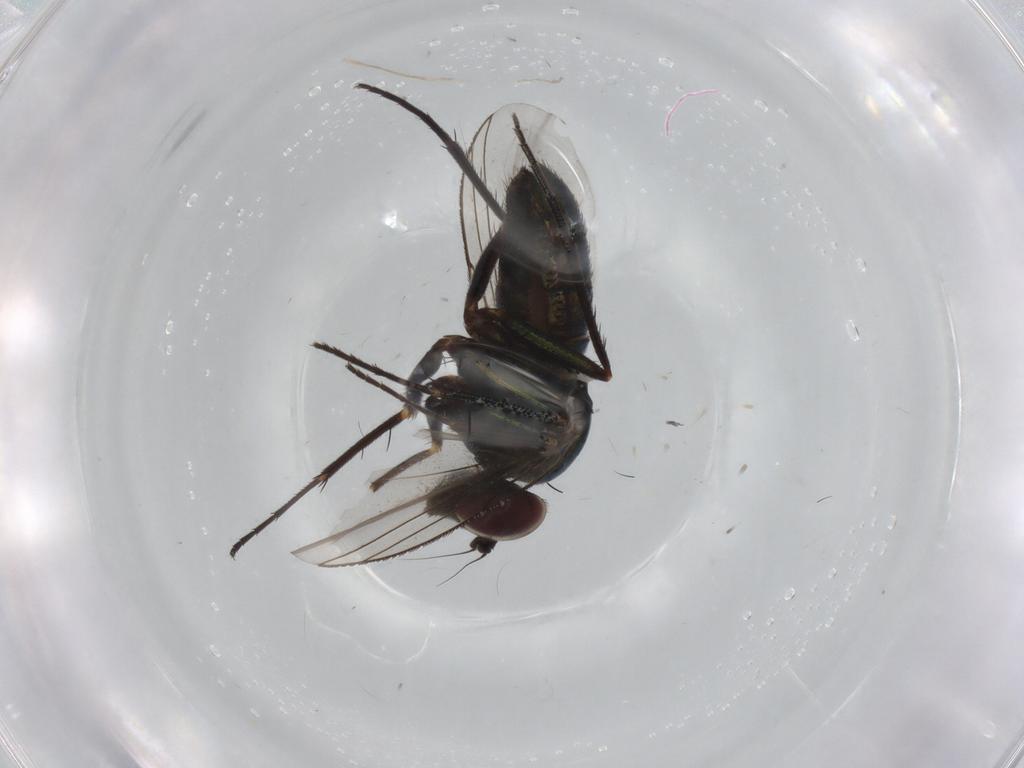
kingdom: Animalia
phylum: Arthropoda
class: Insecta
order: Diptera
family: Dolichopodidae
